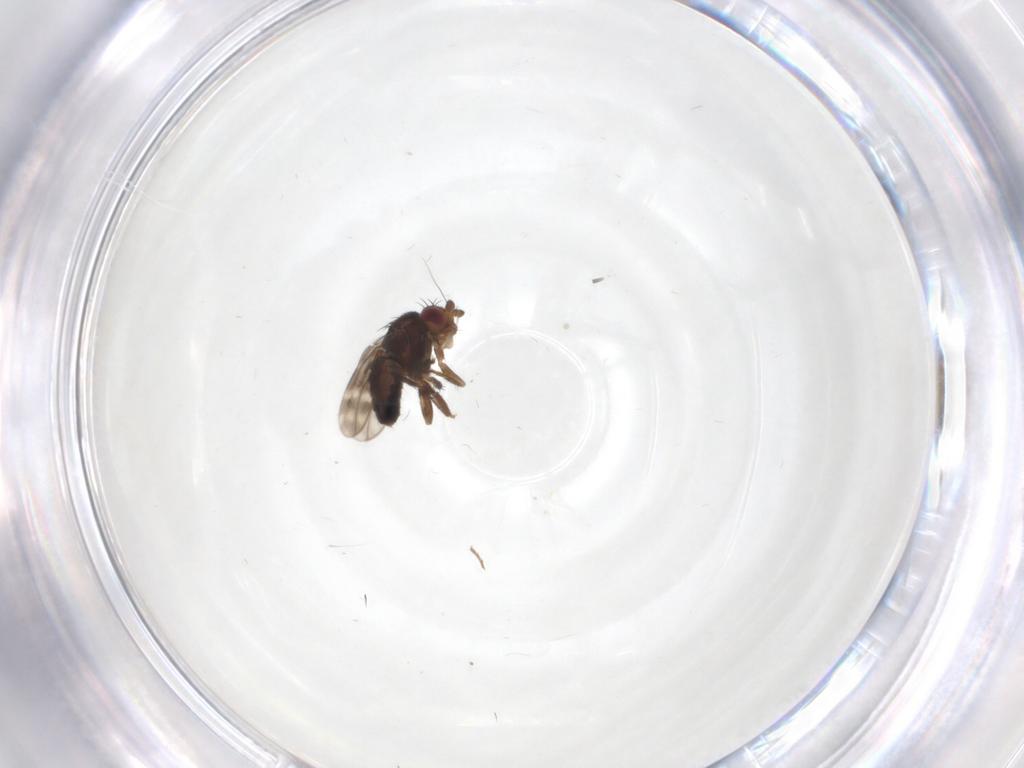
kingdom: Animalia
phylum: Arthropoda
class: Insecta
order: Diptera
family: Sphaeroceridae
